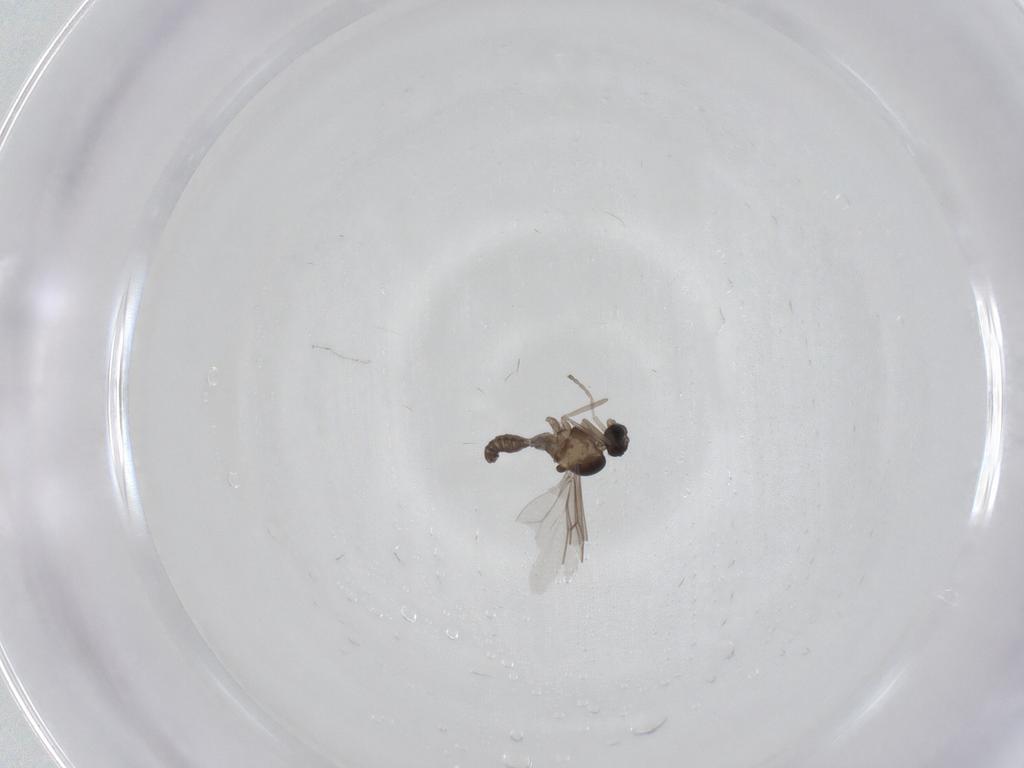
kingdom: Animalia
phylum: Arthropoda
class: Insecta
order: Diptera
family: Cecidomyiidae
